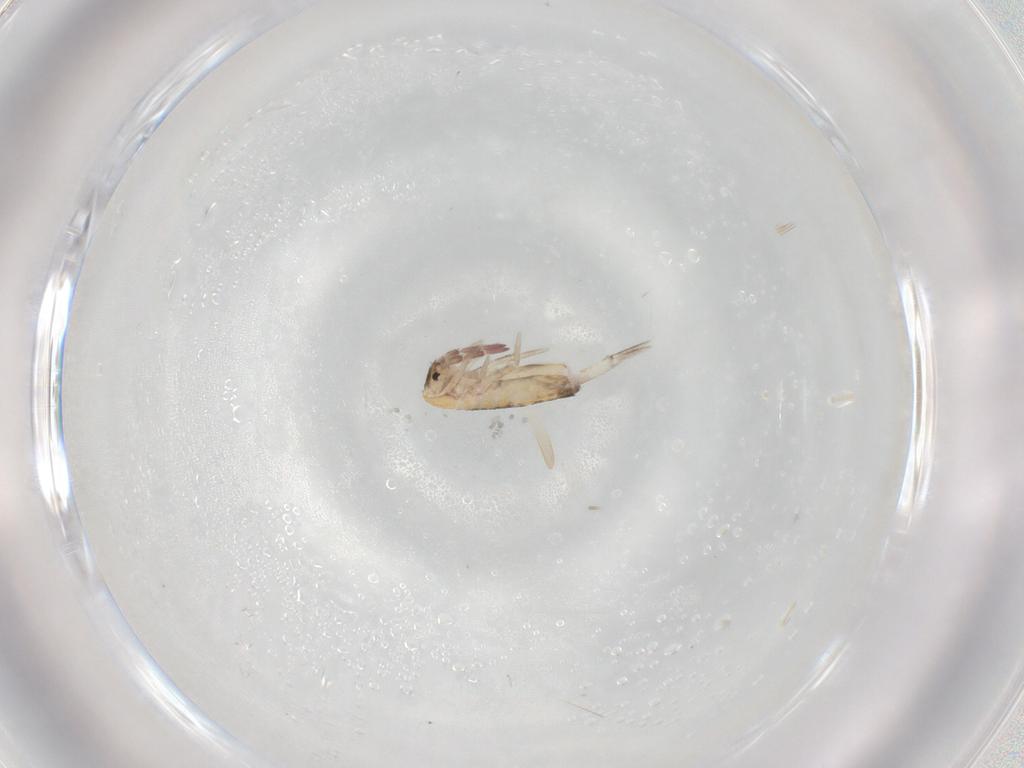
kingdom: Animalia
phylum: Arthropoda
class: Collembola
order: Entomobryomorpha
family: Entomobryidae
